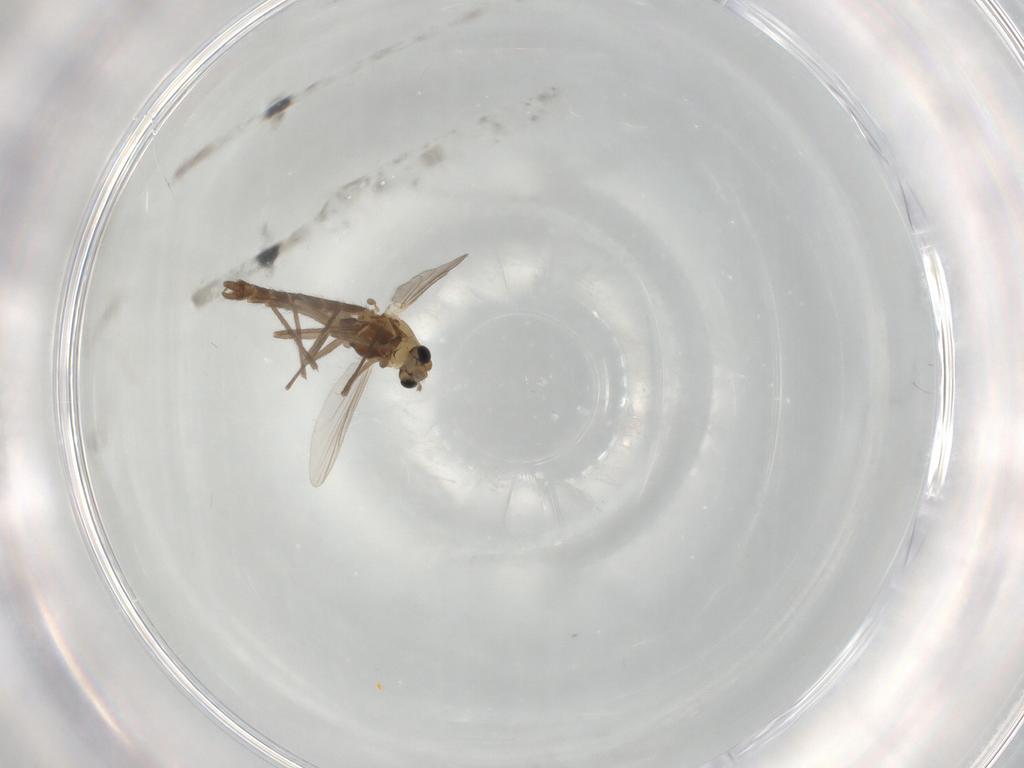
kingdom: Animalia
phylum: Arthropoda
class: Insecta
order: Diptera
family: Chironomidae
